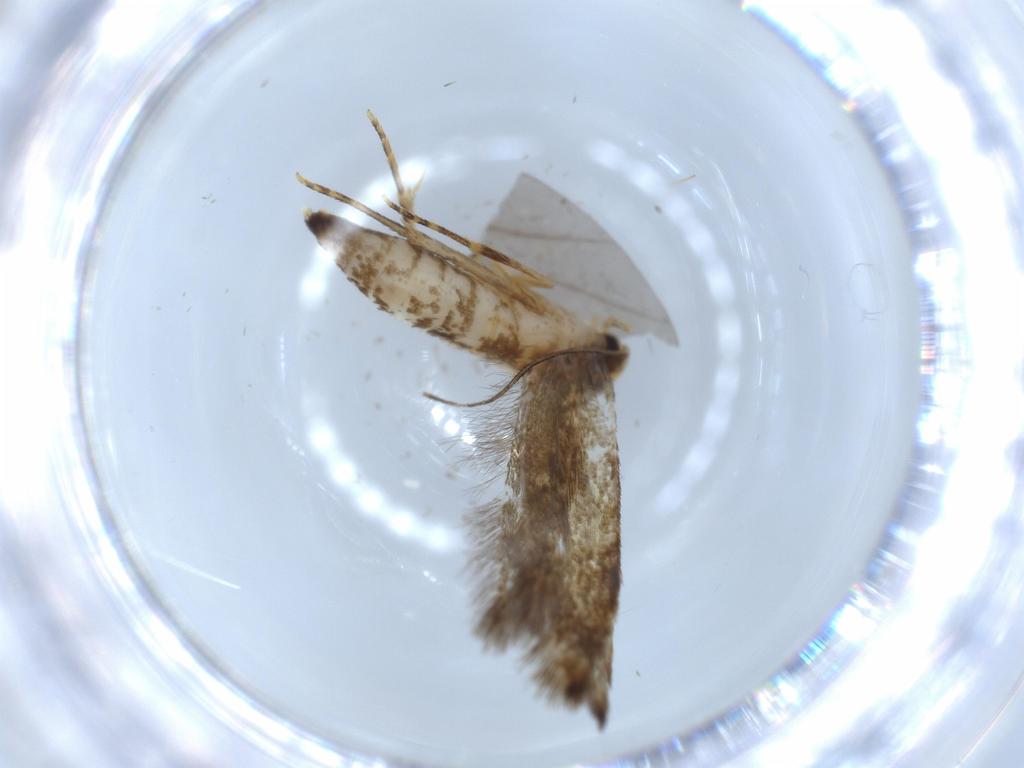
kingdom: Animalia
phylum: Arthropoda
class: Insecta
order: Lepidoptera
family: Tineidae
